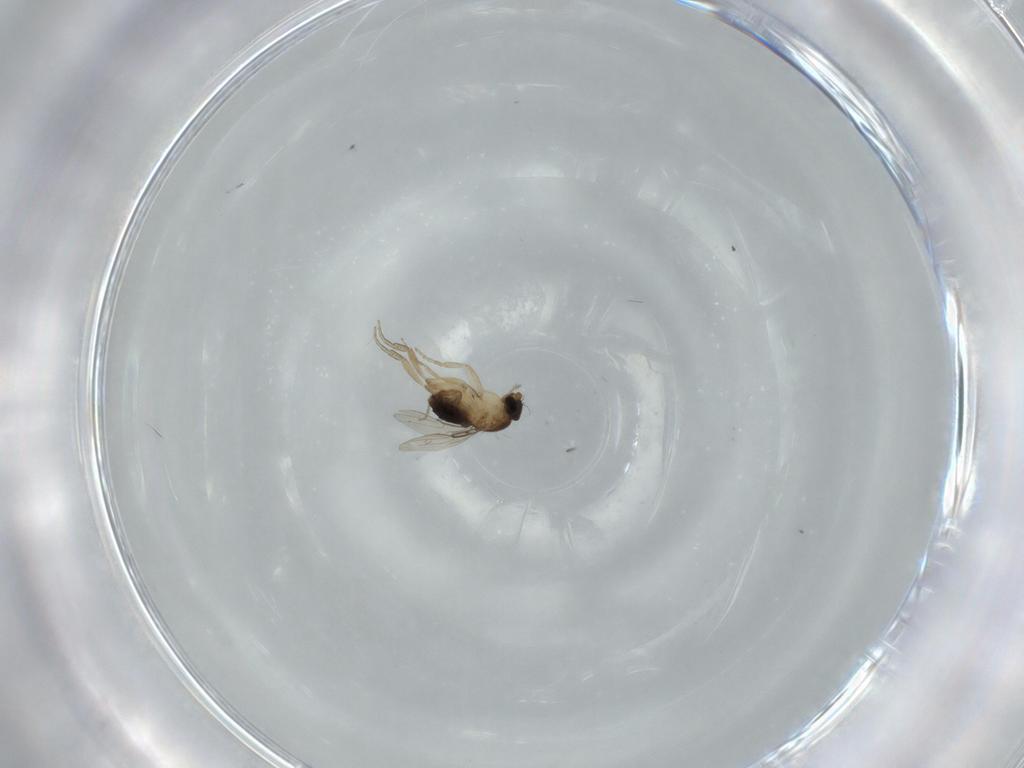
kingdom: Animalia
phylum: Arthropoda
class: Insecta
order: Diptera
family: Phoridae
